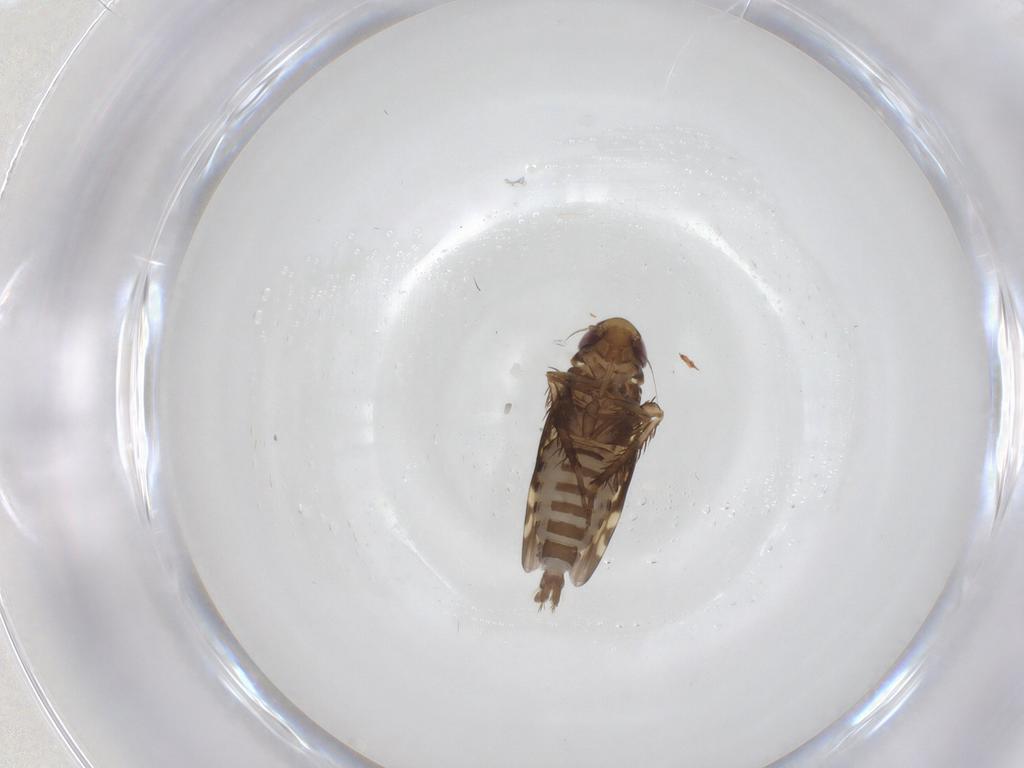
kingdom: Animalia
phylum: Arthropoda
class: Insecta
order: Hemiptera
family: Cicadellidae
